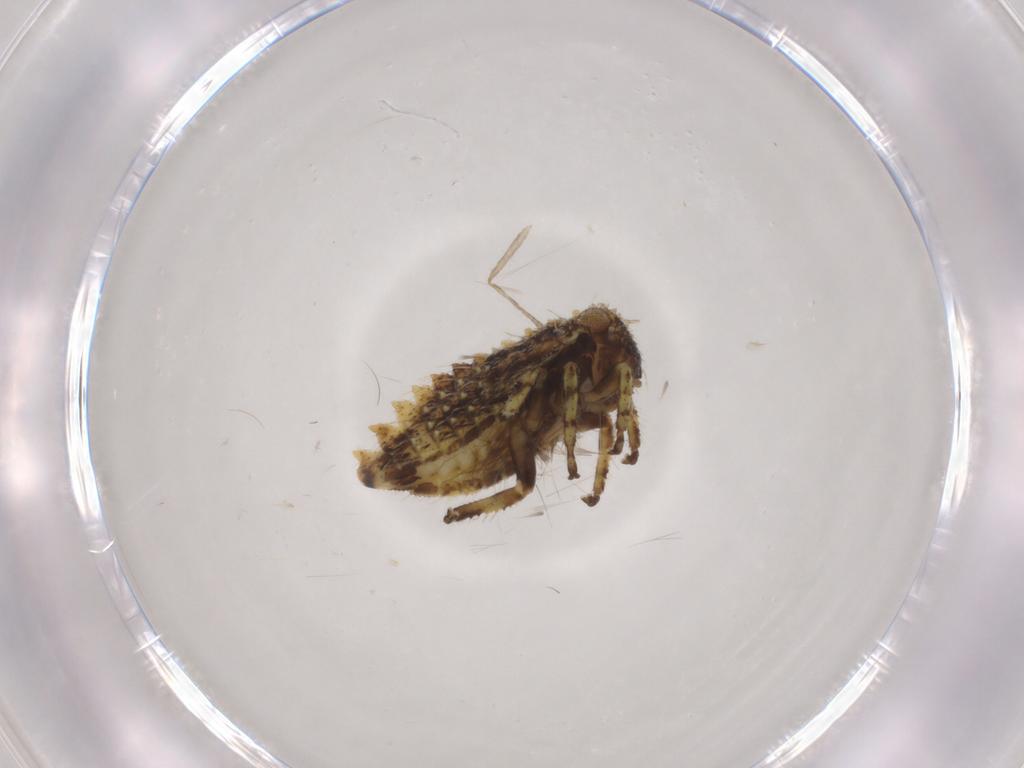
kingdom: Animalia
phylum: Arthropoda
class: Insecta
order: Hemiptera
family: Cicadellidae
